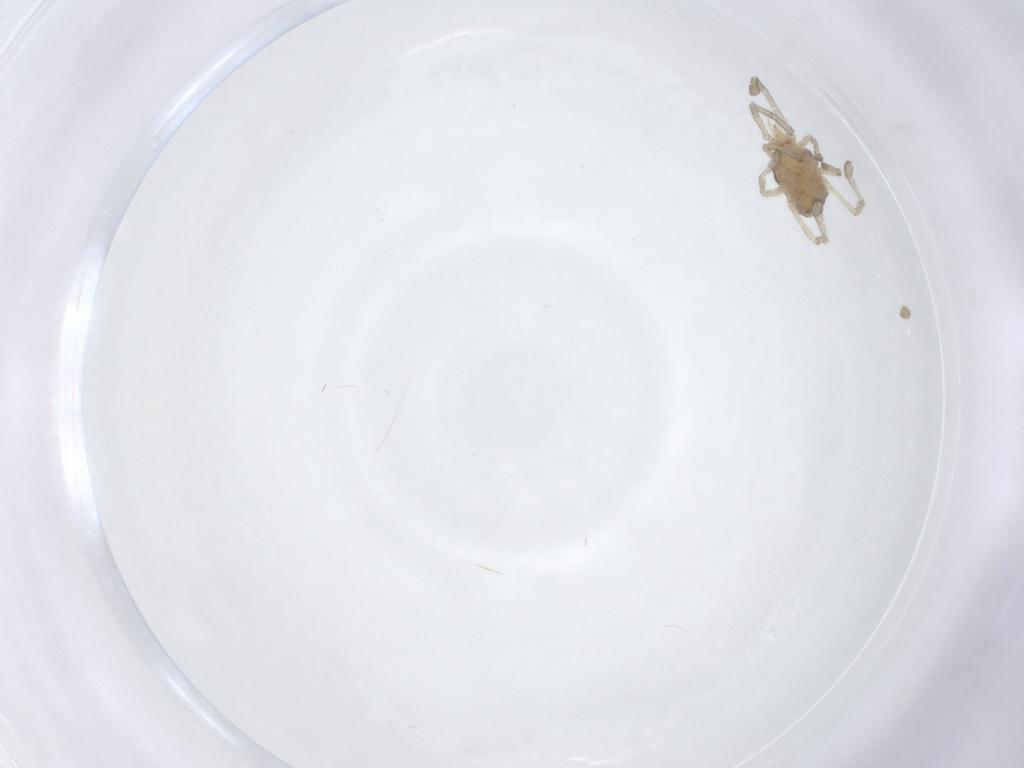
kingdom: Animalia
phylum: Arthropoda
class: Arachnida
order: Trombidiformes
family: Smarididae
